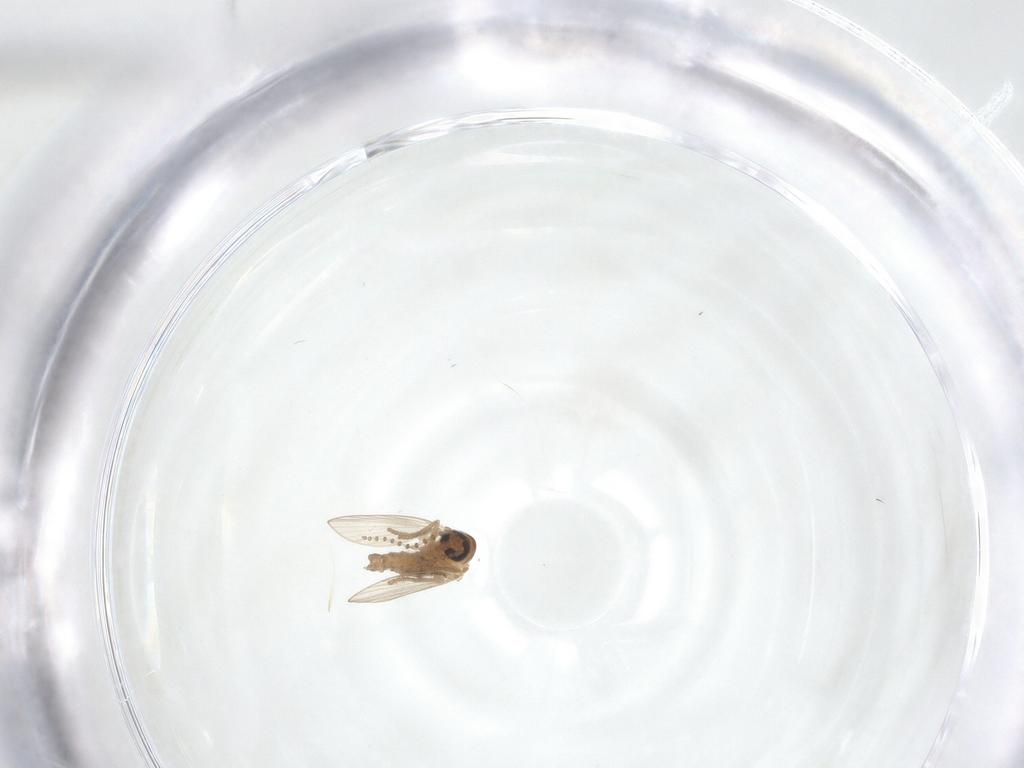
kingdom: Animalia
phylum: Arthropoda
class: Insecta
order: Diptera
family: Psychodidae
